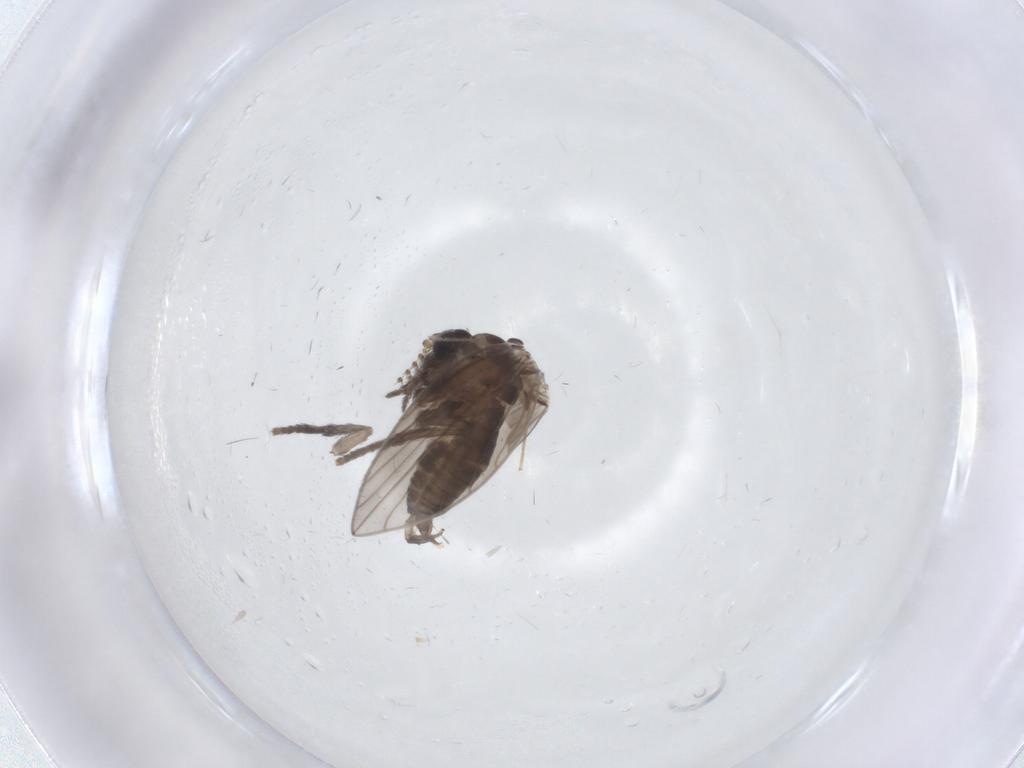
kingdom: Animalia
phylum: Arthropoda
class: Insecta
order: Diptera
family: Psychodidae
